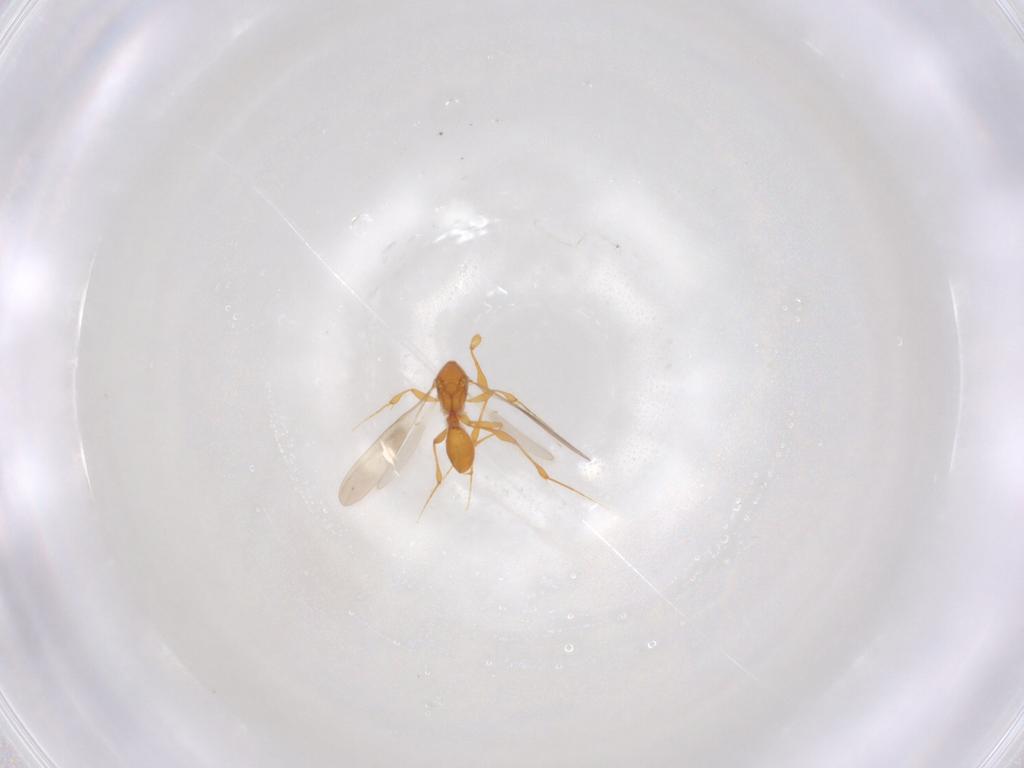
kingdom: Animalia
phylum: Arthropoda
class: Insecta
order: Hymenoptera
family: Platygastridae
